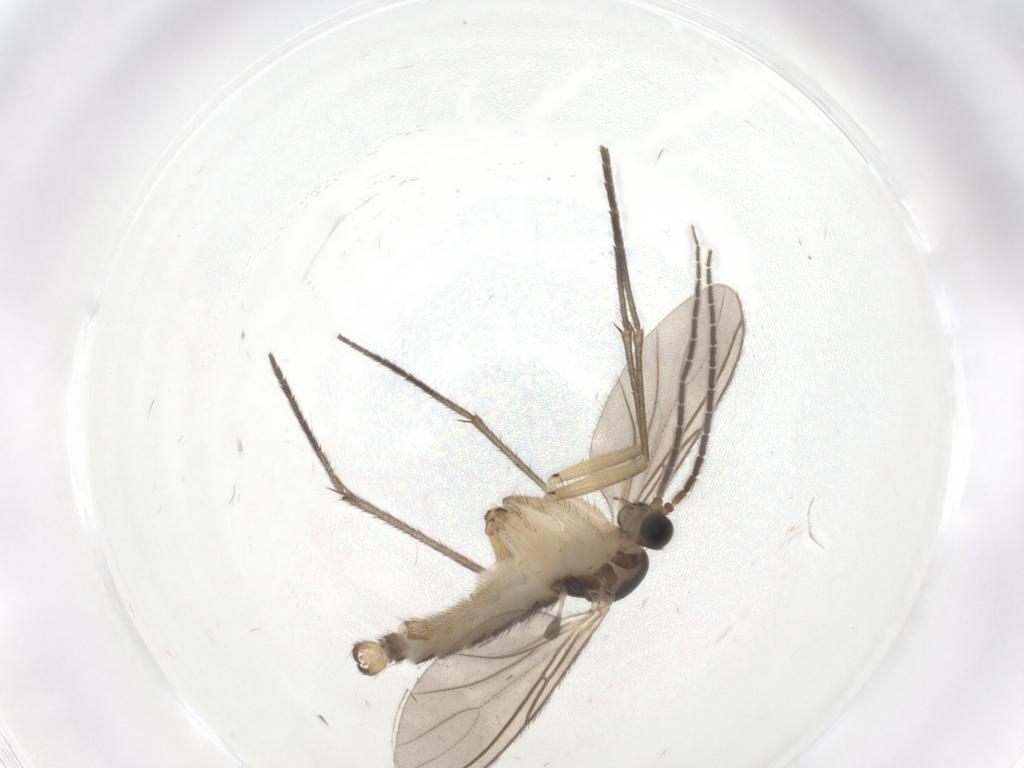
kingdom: Animalia
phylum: Arthropoda
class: Insecta
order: Diptera
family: Sciaridae
